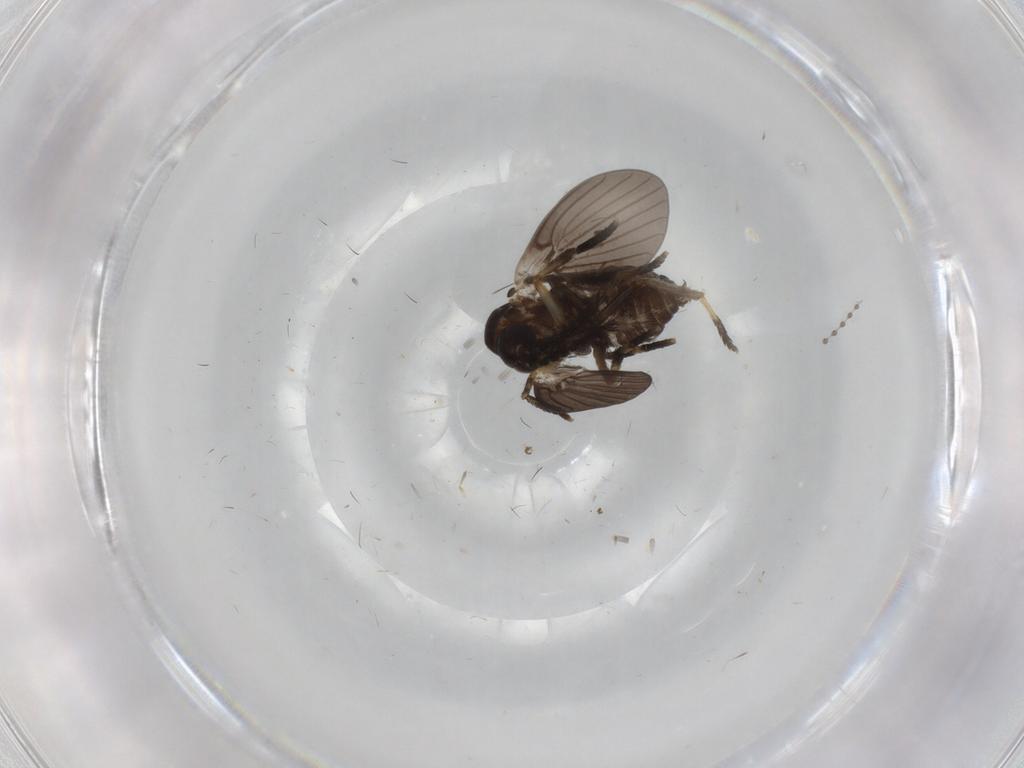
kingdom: Animalia
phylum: Arthropoda
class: Insecta
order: Diptera
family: Psychodidae
